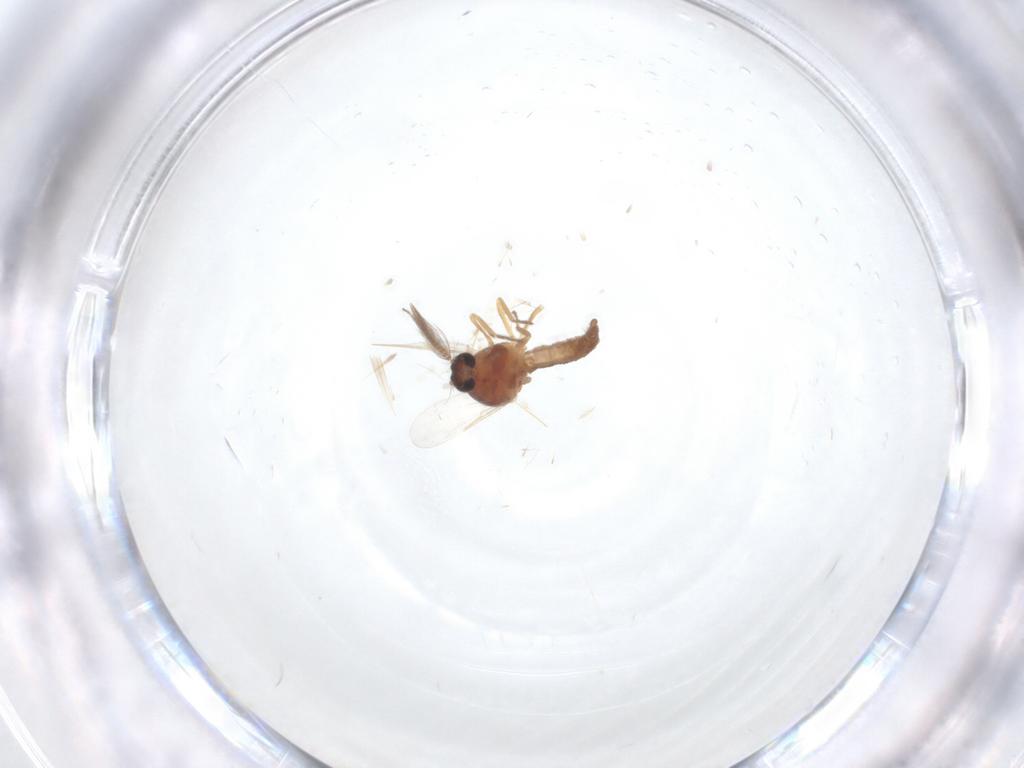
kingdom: Animalia
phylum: Arthropoda
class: Insecta
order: Diptera
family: Ceratopogonidae
